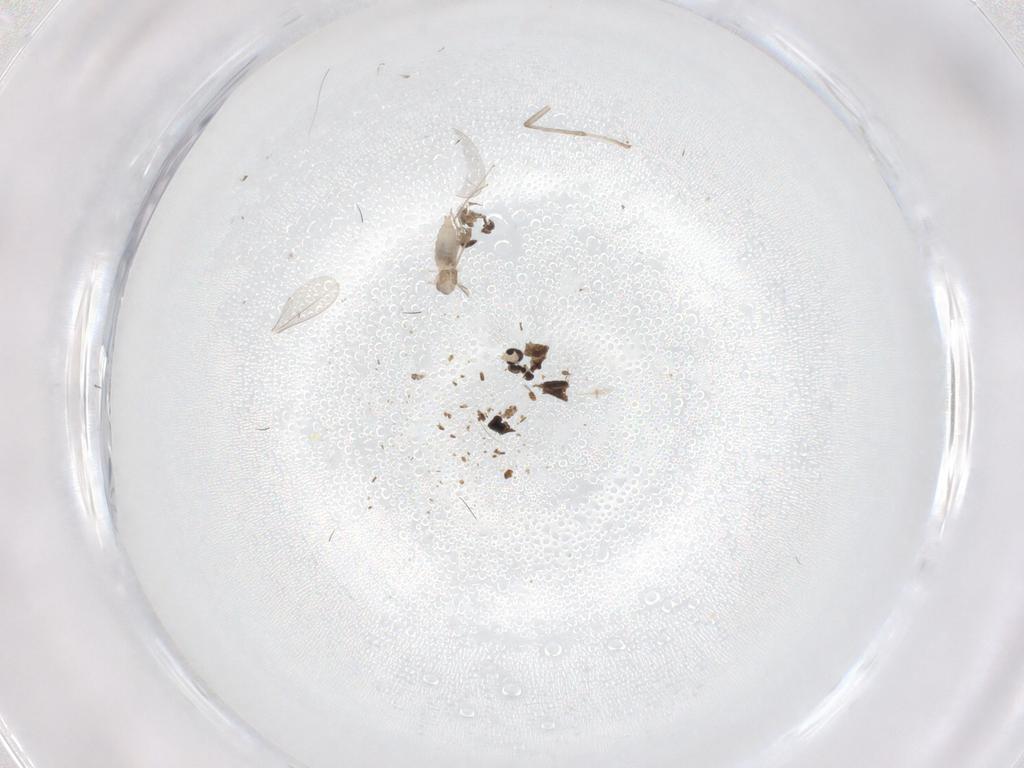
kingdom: Animalia
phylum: Arthropoda
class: Insecta
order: Diptera
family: Cecidomyiidae
